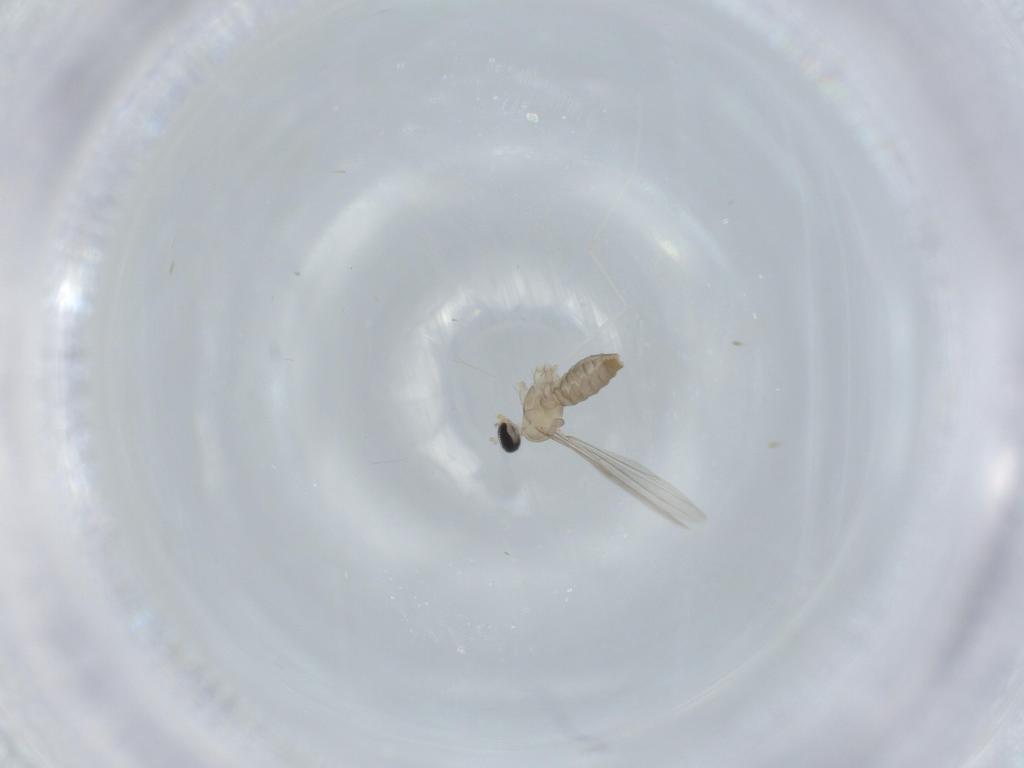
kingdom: Animalia
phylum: Arthropoda
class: Insecta
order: Diptera
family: Cecidomyiidae
